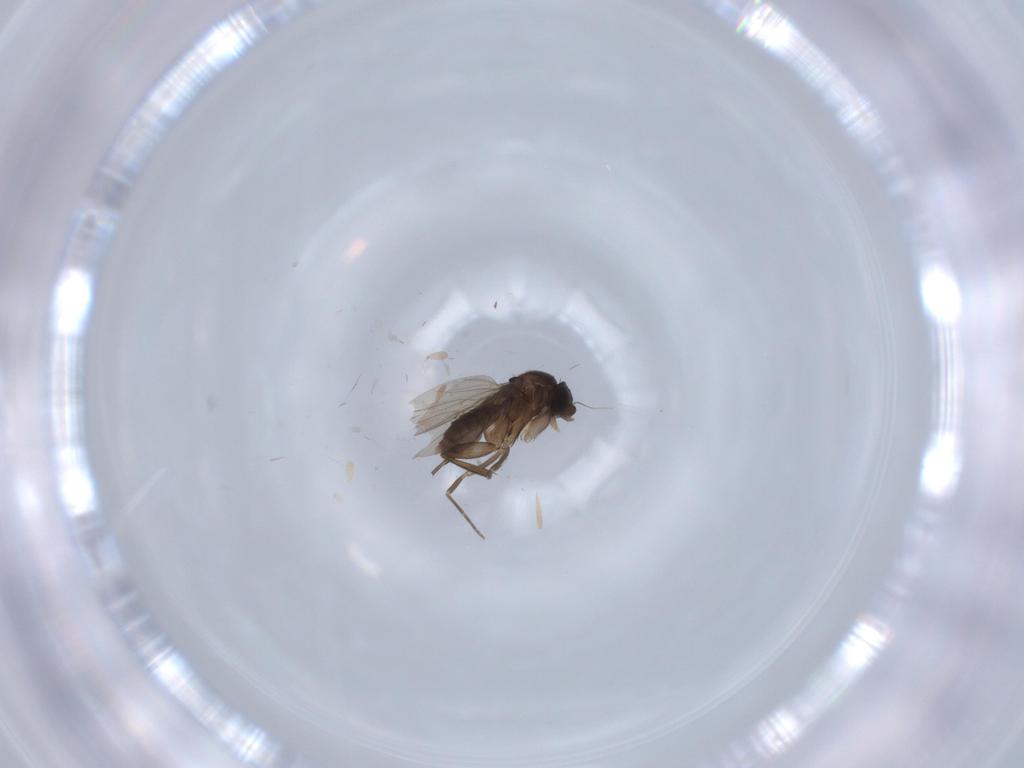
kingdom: Animalia
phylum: Arthropoda
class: Insecta
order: Diptera
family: Phoridae
